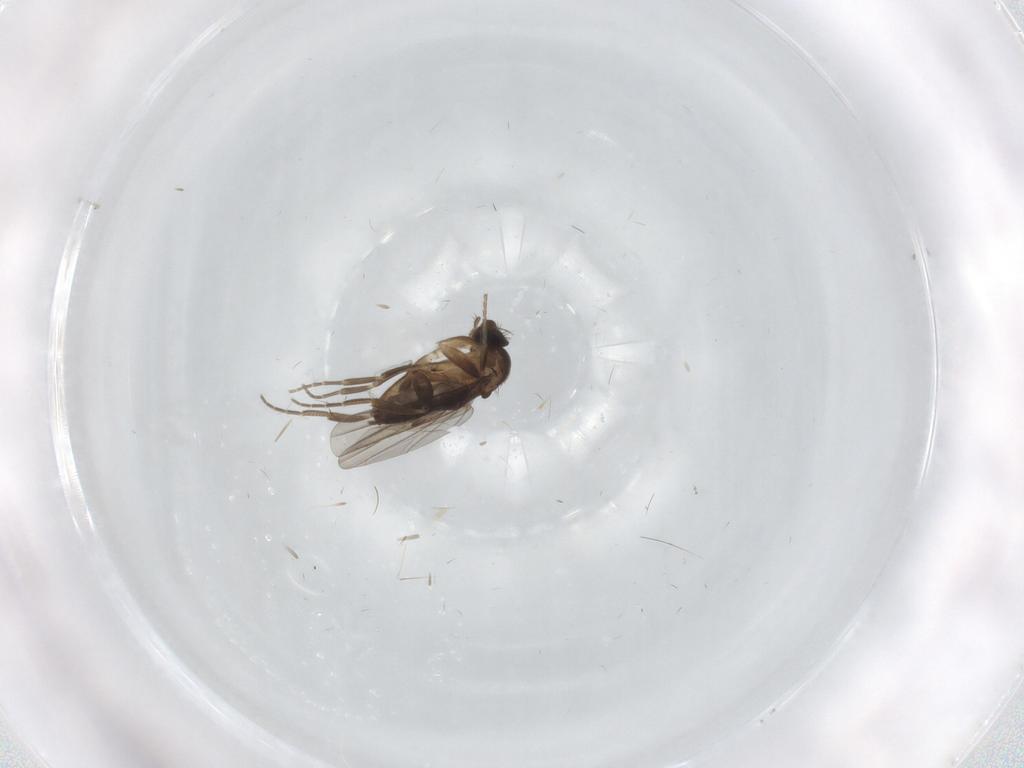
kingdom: Animalia
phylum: Arthropoda
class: Insecta
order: Diptera
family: Phoridae
